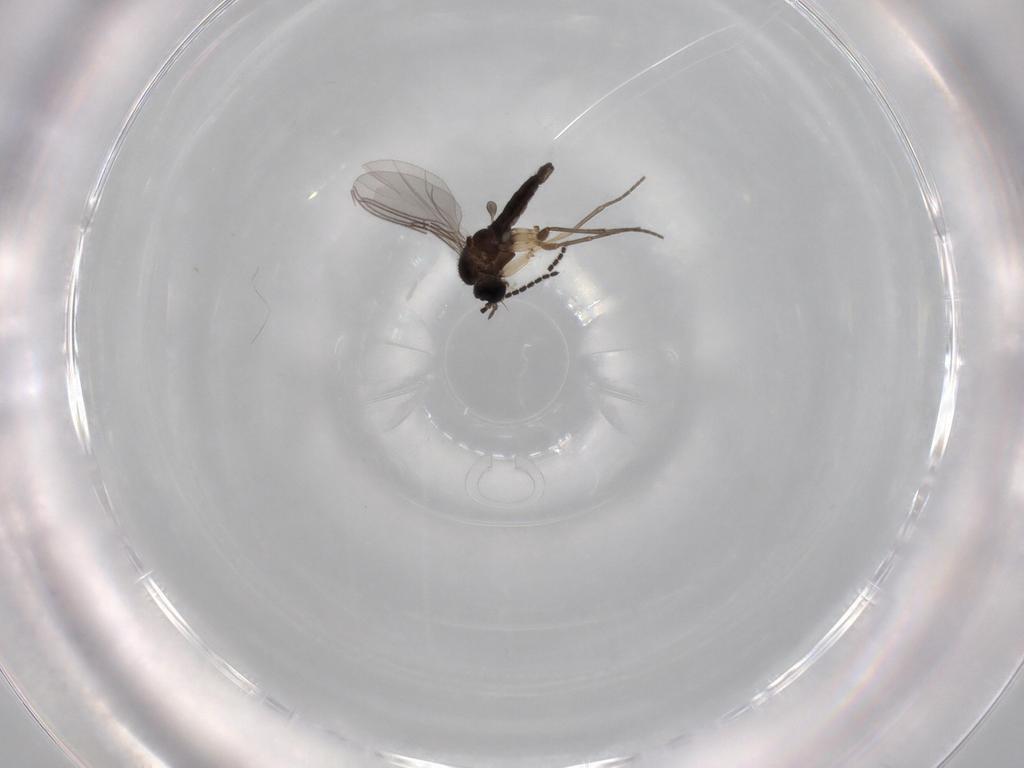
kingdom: Animalia
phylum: Arthropoda
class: Insecta
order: Diptera
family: Sciaridae
